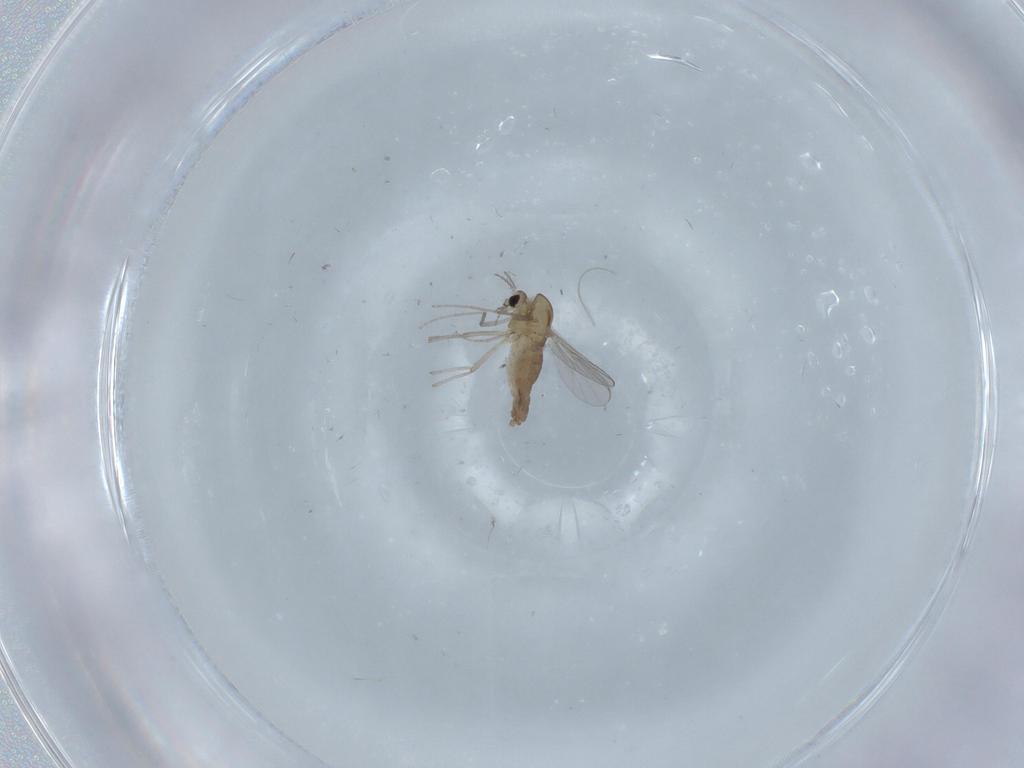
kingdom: Animalia
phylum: Arthropoda
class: Insecta
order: Diptera
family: Chironomidae
